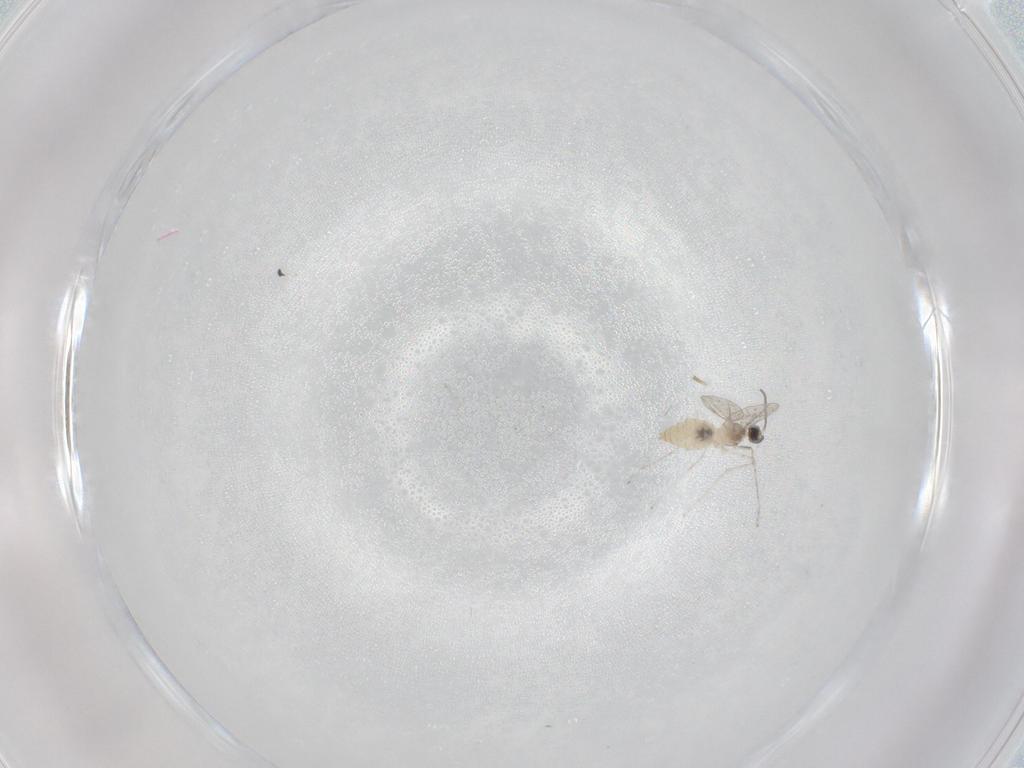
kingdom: Animalia
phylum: Arthropoda
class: Insecta
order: Diptera
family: Cecidomyiidae
